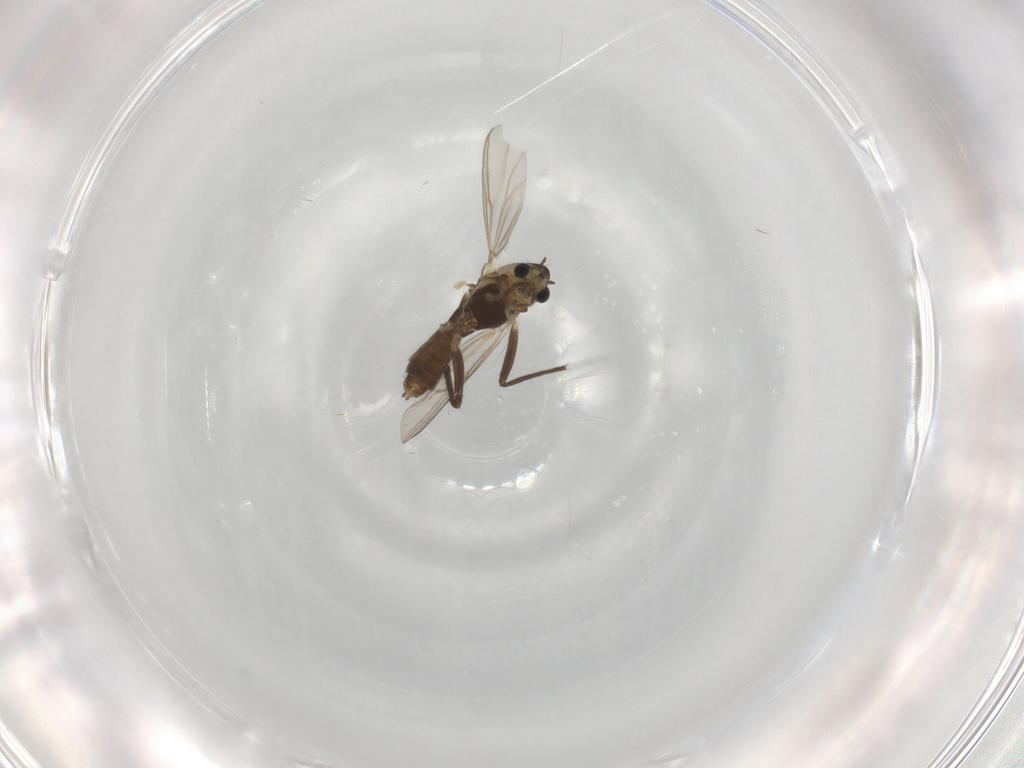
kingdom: Animalia
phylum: Arthropoda
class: Insecta
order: Diptera
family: Chironomidae
